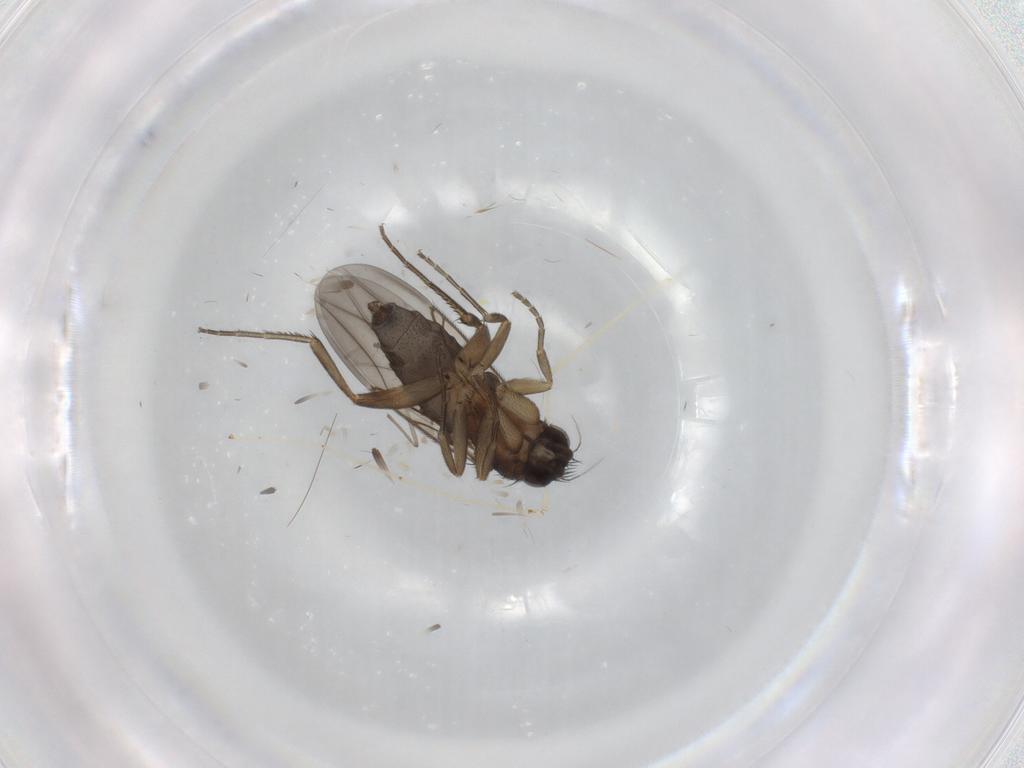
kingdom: Animalia
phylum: Arthropoda
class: Insecta
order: Diptera
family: Phoridae
